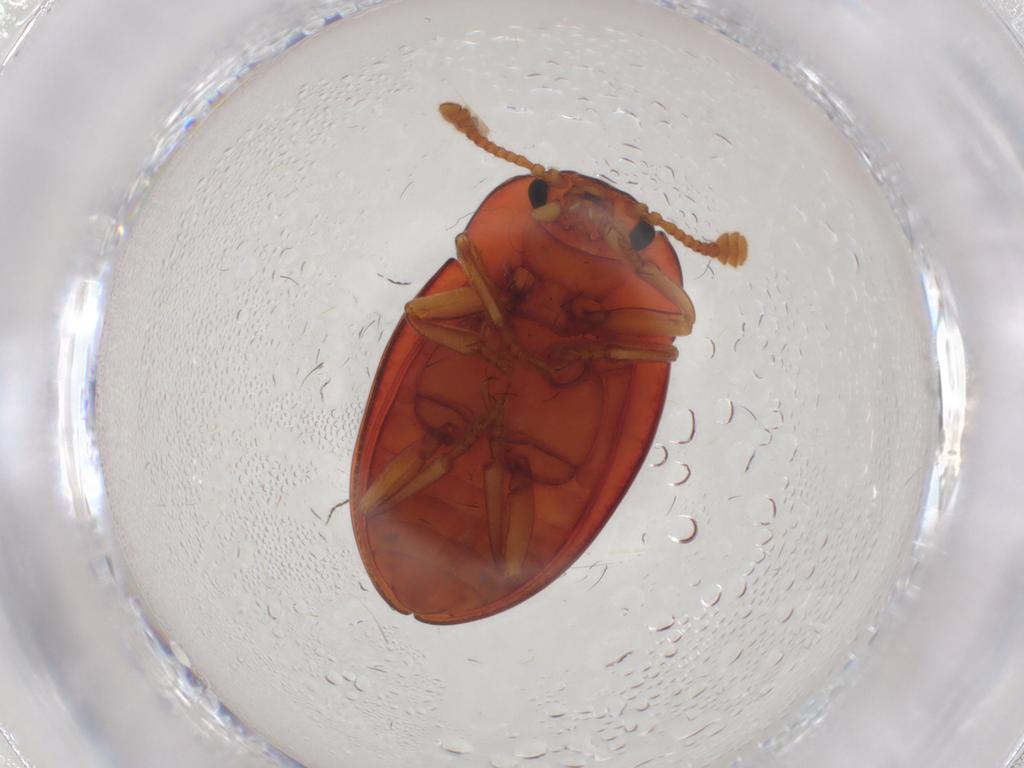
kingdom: Animalia
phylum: Arthropoda
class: Insecta
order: Coleoptera
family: Erotylidae
